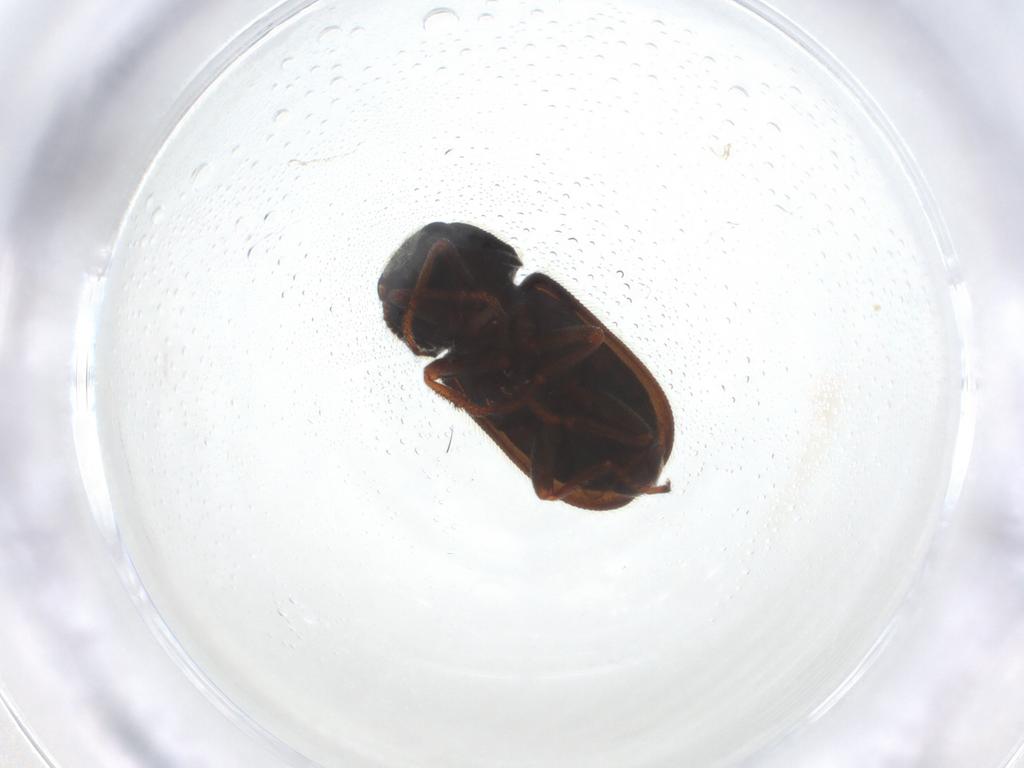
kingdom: Animalia
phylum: Arthropoda
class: Insecta
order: Coleoptera
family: Melyridae
